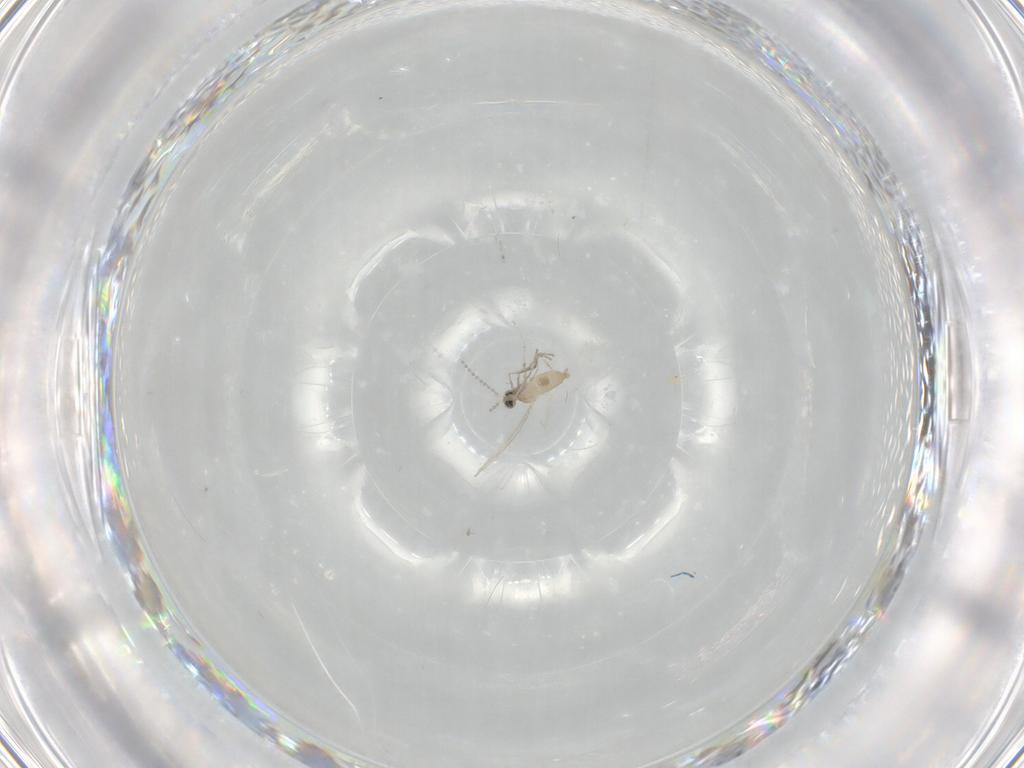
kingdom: Animalia
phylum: Arthropoda
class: Insecta
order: Diptera
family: Cecidomyiidae
